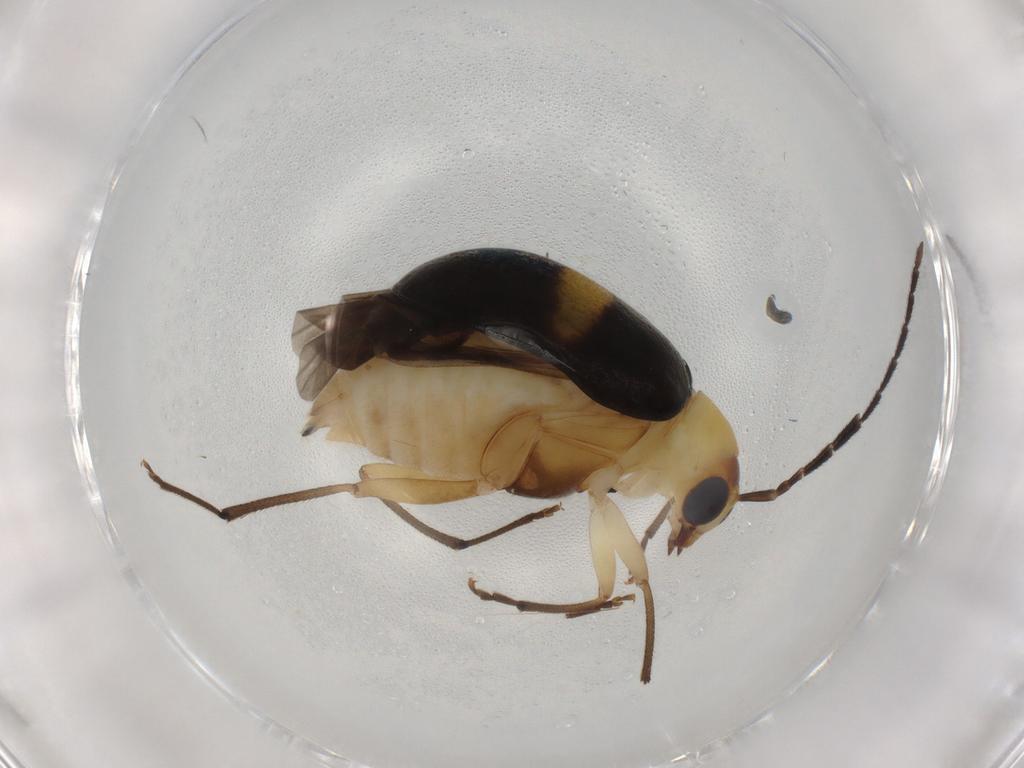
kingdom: Animalia
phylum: Arthropoda
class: Insecta
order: Coleoptera
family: Chrysomelidae
